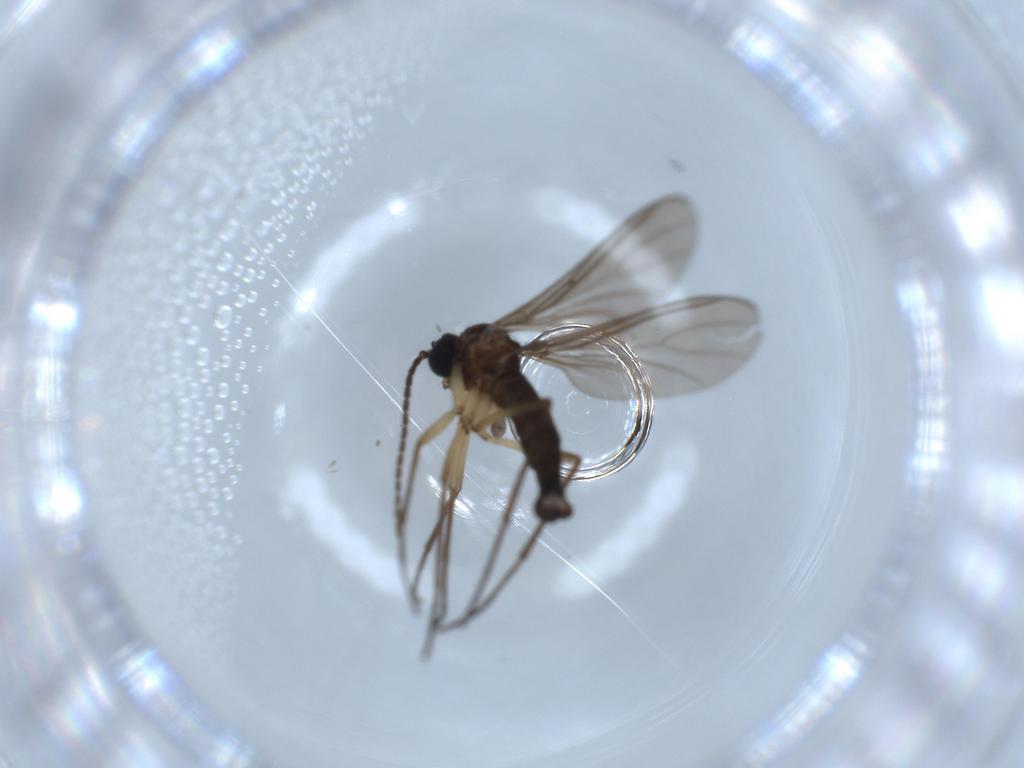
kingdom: Animalia
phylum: Arthropoda
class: Insecta
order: Diptera
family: Sciaridae
